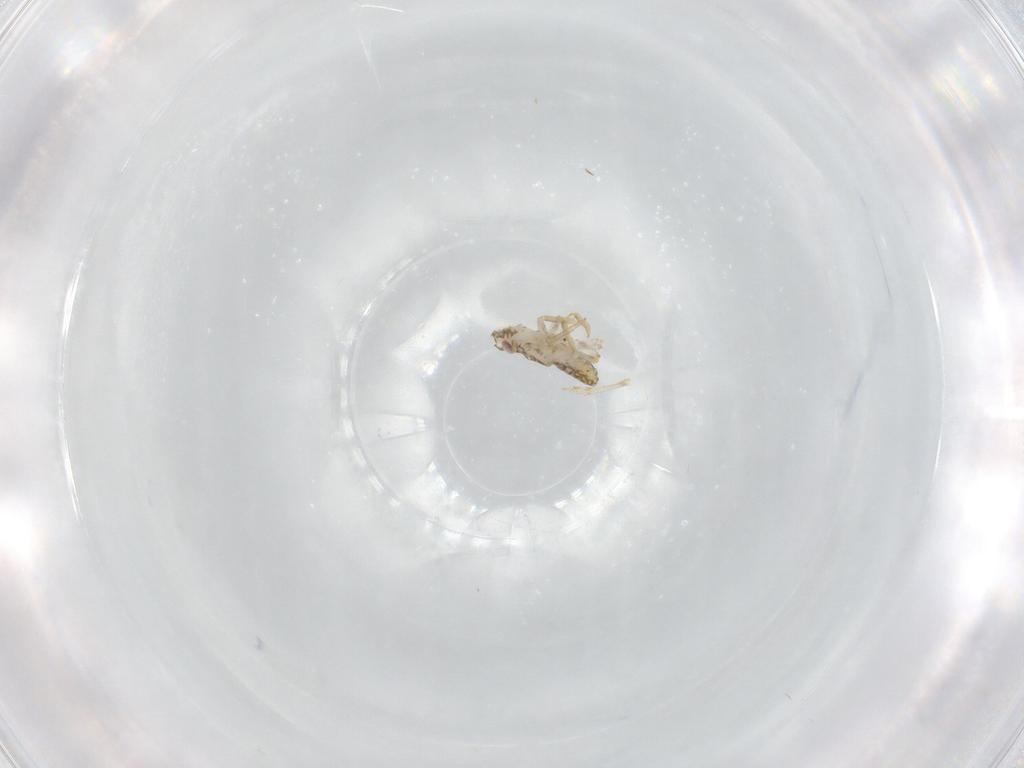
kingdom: Animalia
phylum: Arthropoda
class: Insecta
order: Hemiptera
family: Delphacidae
